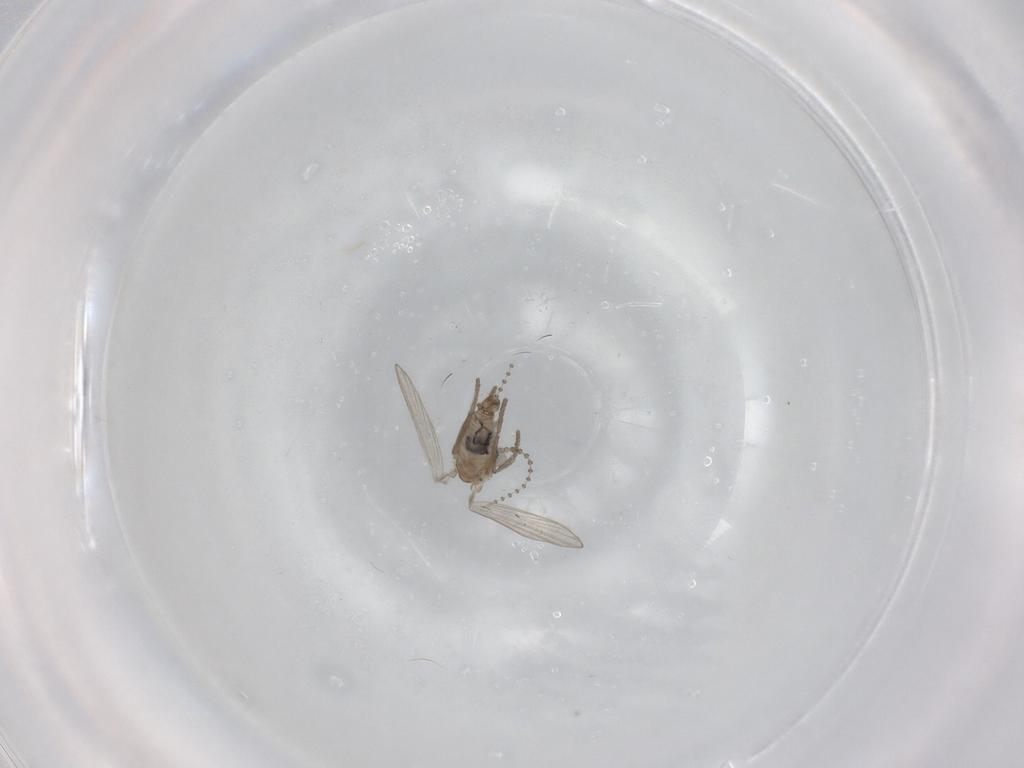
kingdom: Animalia
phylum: Arthropoda
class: Insecta
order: Diptera
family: Psychodidae
